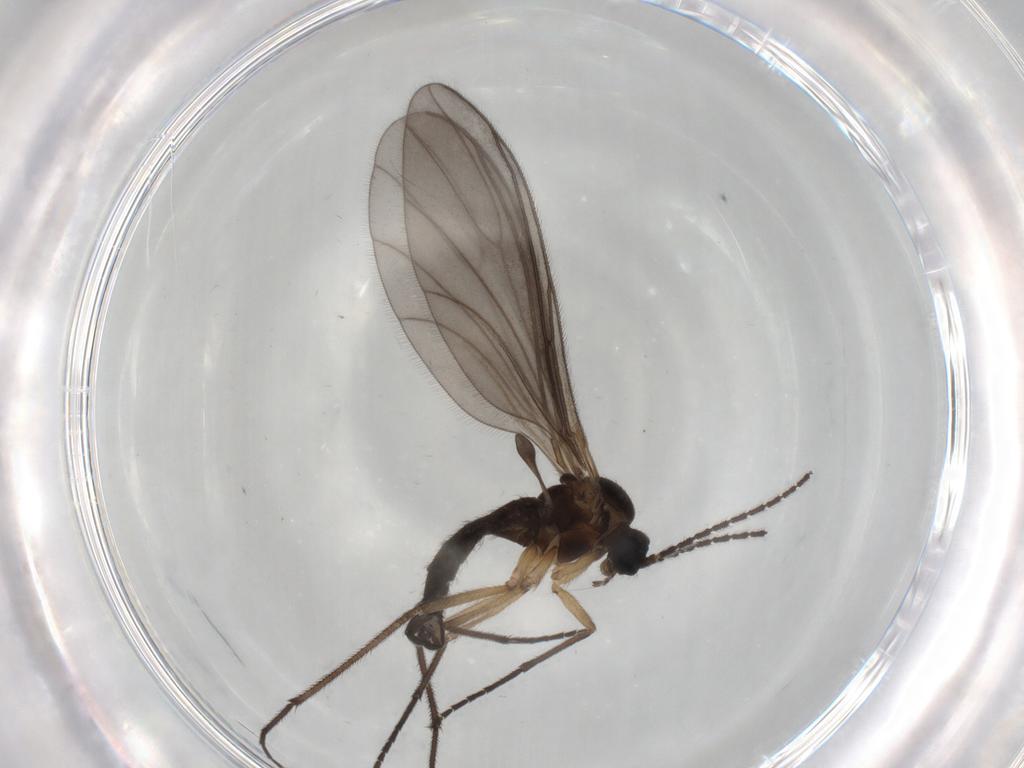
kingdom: Animalia
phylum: Arthropoda
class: Insecta
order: Diptera
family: Sciaridae
